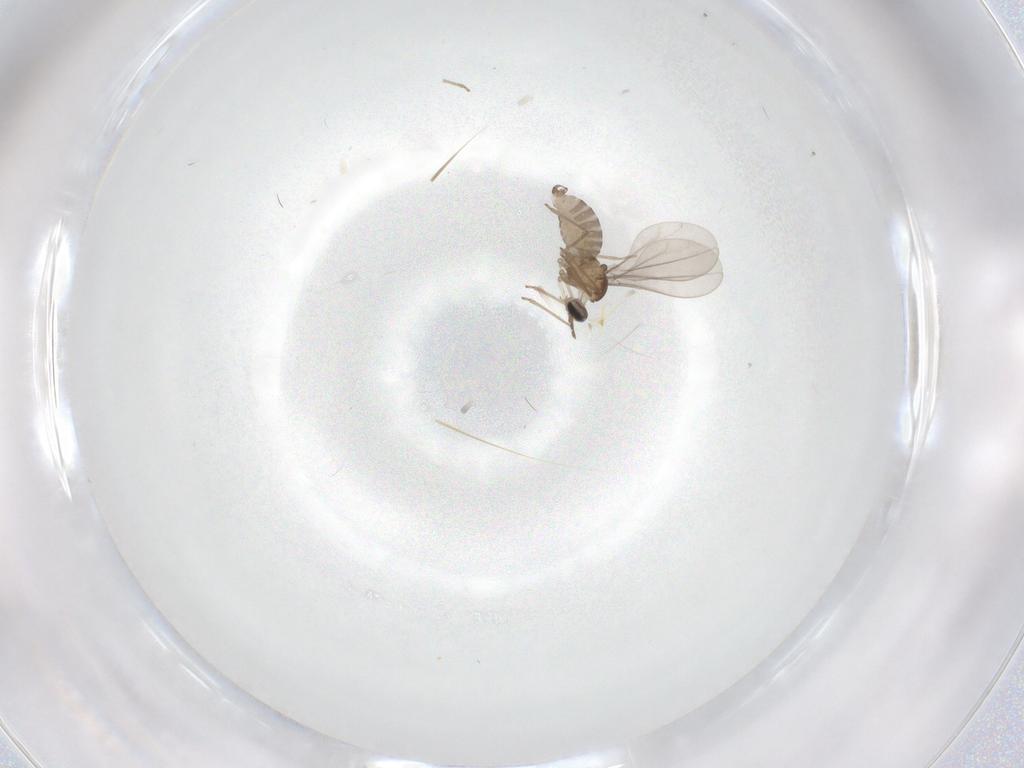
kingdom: Animalia
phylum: Arthropoda
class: Insecta
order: Diptera
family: Cecidomyiidae
